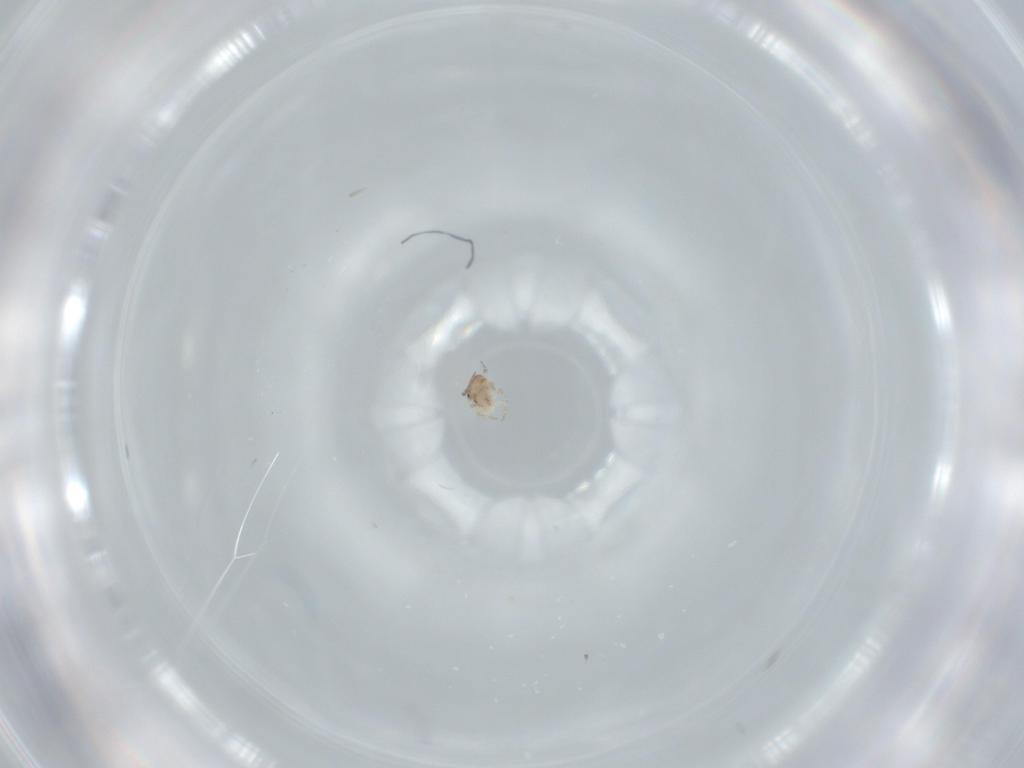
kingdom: Animalia
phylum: Arthropoda
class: Insecta
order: Psocodea
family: Lepidopsocidae
